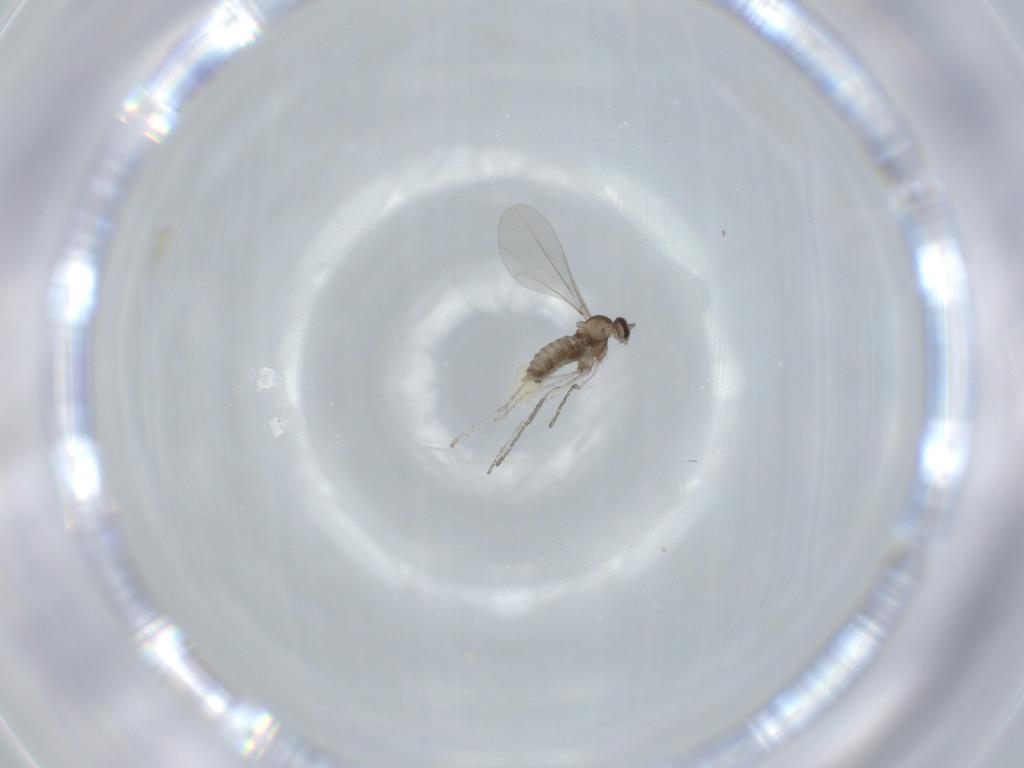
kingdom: Animalia
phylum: Arthropoda
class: Insecta
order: Diptera
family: Cecidomyiidae
